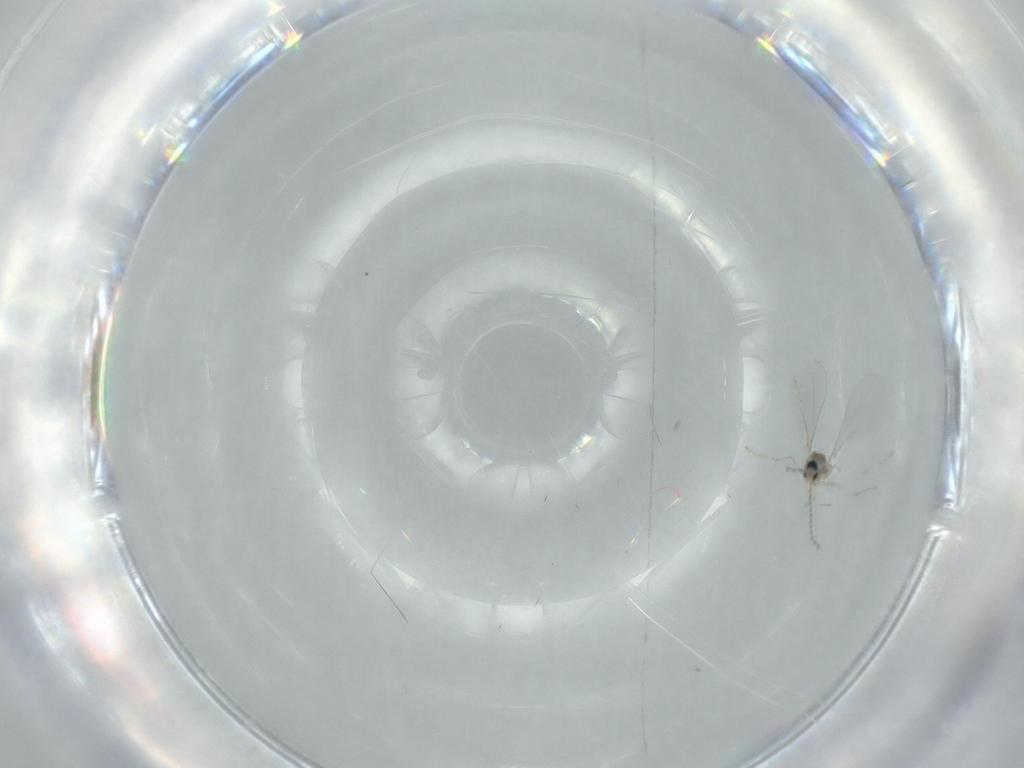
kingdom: Animalia
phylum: Arthropoda
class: Insecta
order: Diptera
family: Cecidomyiidae
